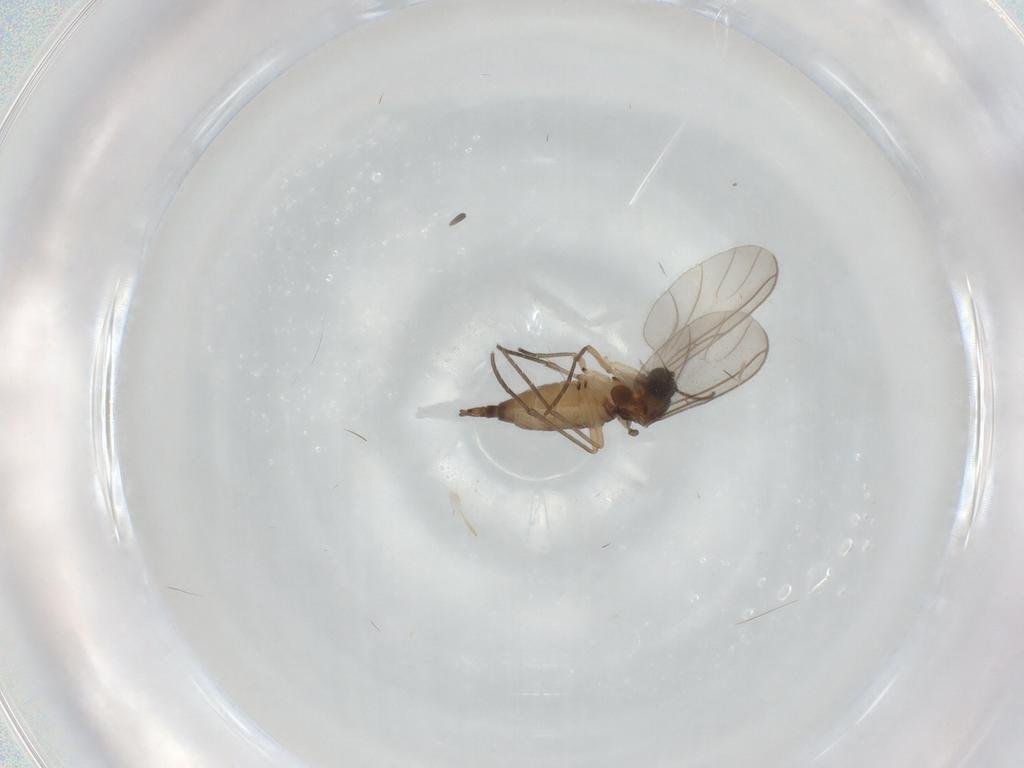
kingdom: Animalia
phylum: Arthropoda
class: Insecta
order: Diptera
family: Sciaridae
